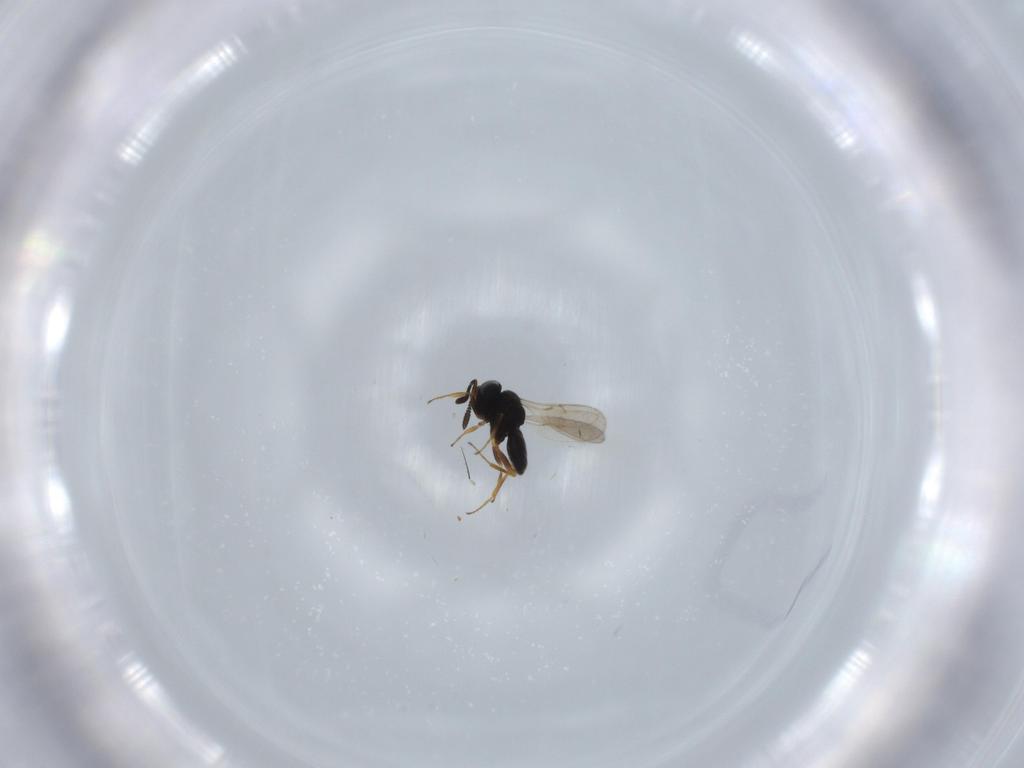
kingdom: Animalia
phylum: Arthropoda
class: Insecta
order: Hymenoptera
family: Scelionidae
